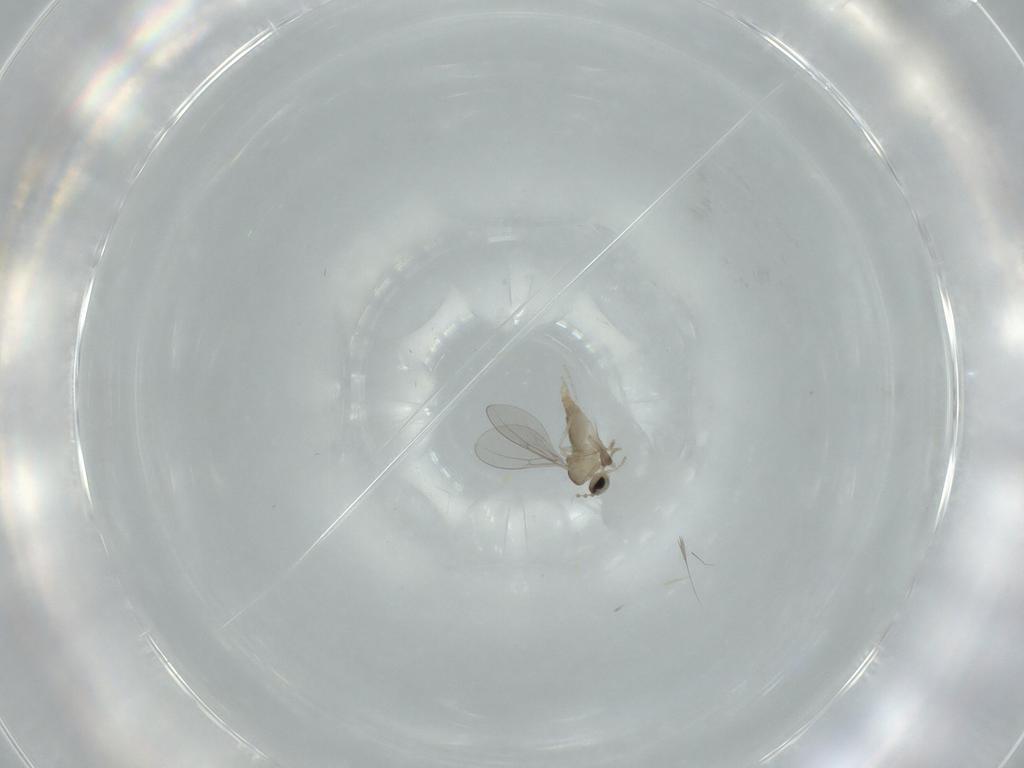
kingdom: Animalia
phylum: Arthropoda
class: Insecta
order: Diptera
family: Cecidomyiidae
